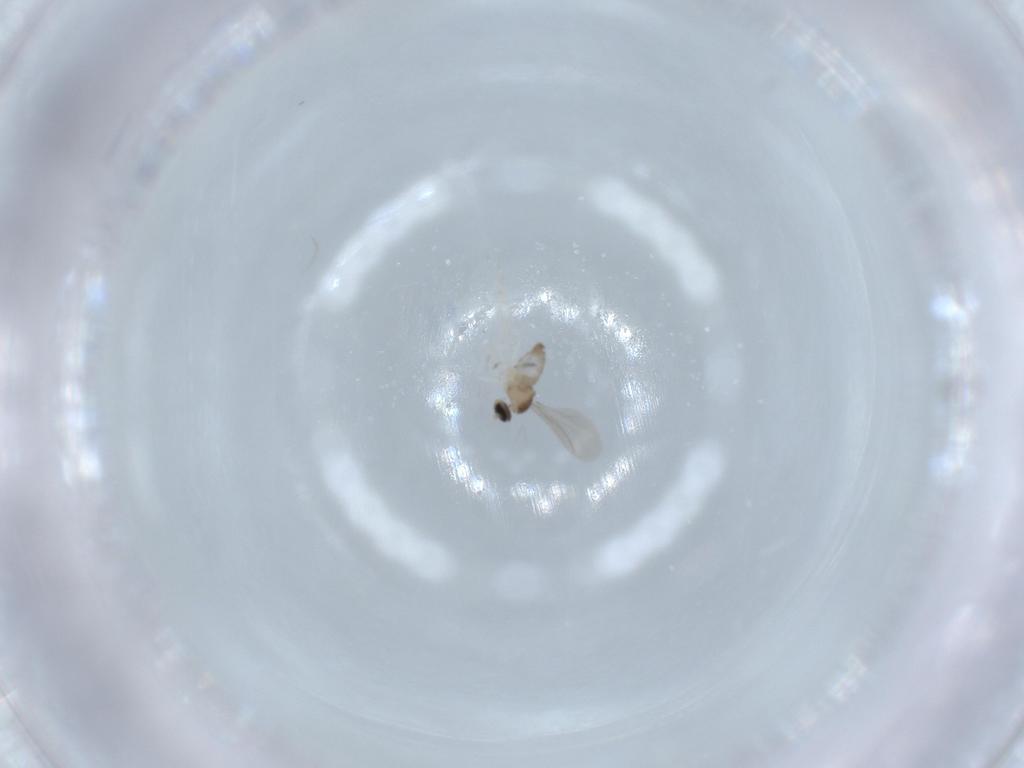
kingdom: Animalia
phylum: Arthropoda
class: Insecta
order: Diptera
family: Cecidomyiidae
